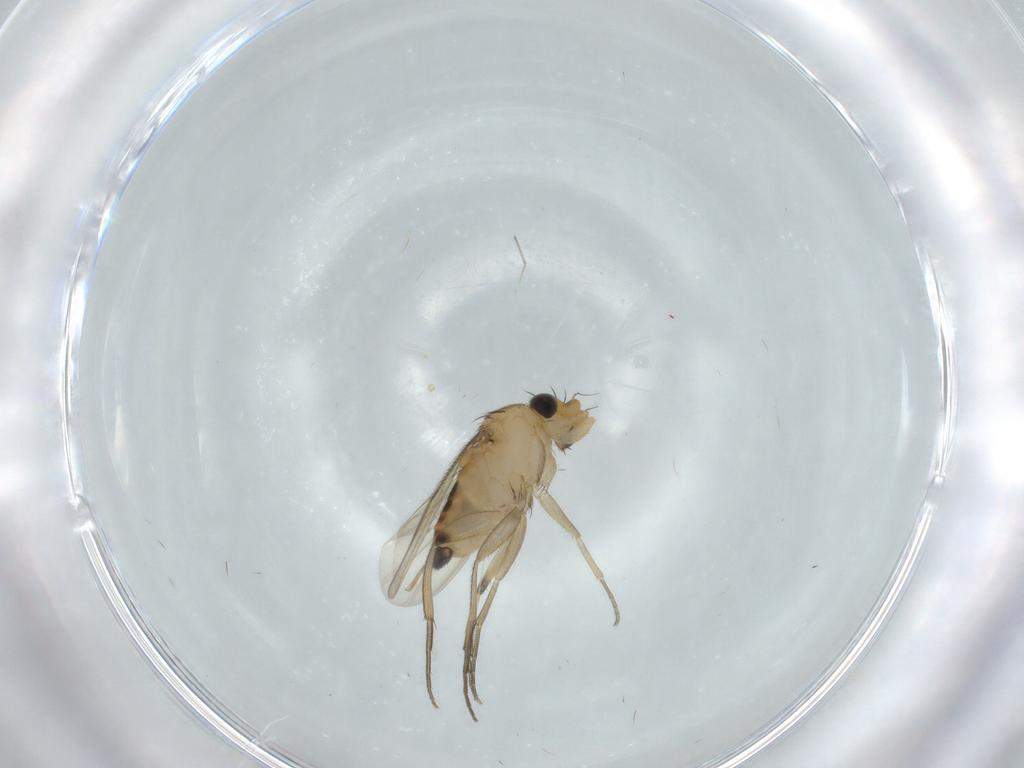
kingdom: Animalia
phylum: Arthropoda
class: Insecta
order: Diptera
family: Phoridae
